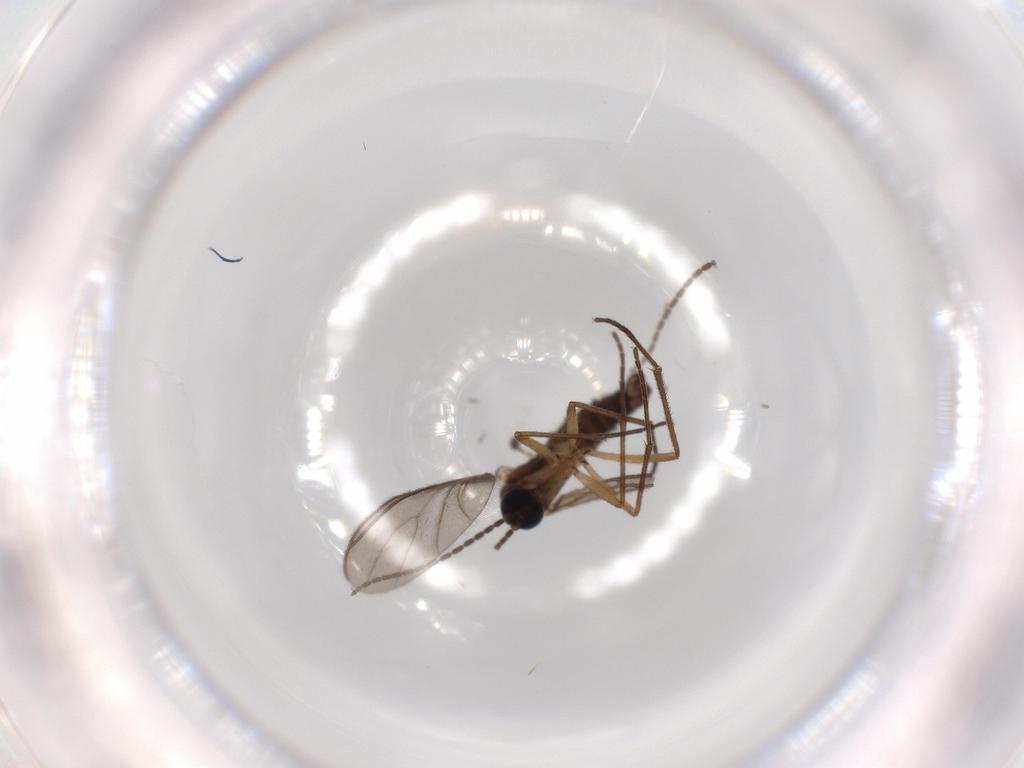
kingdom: Animalia
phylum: Arthropoda
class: Insecta
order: Diptera
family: Sciaridae
